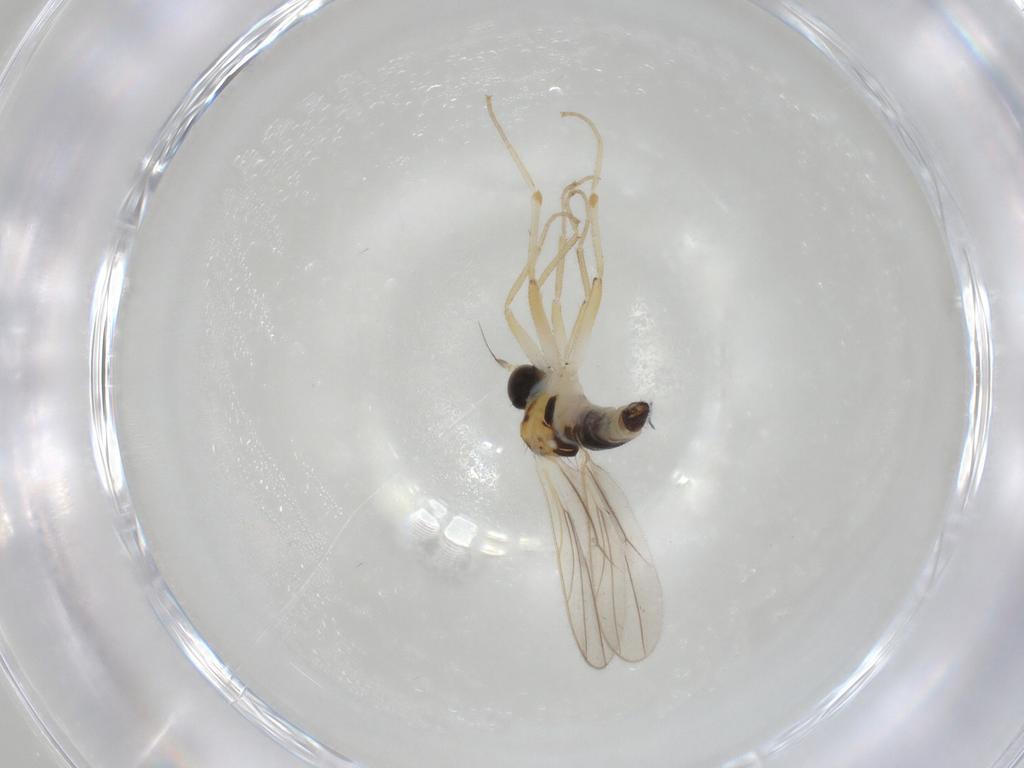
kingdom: Animalia
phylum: Arthropoda
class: Insecta
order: Diptera
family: Hybotidae
